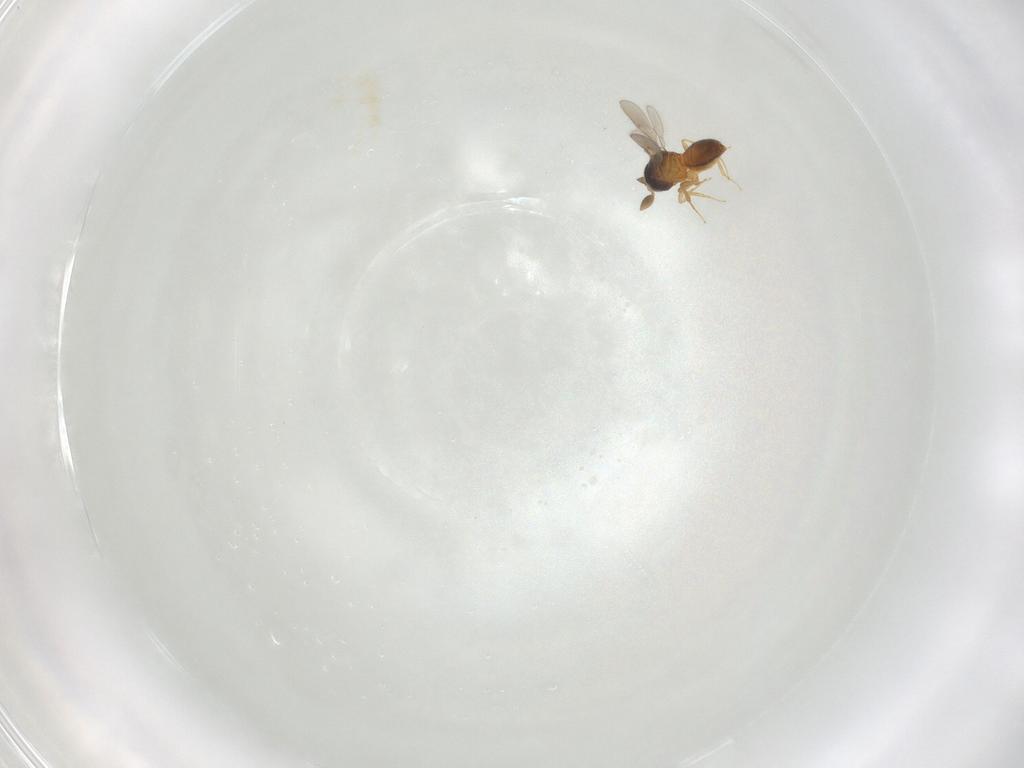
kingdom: Animalia
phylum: Arthropoda
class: Insecta
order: Hymenoptera
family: Scelionidae
